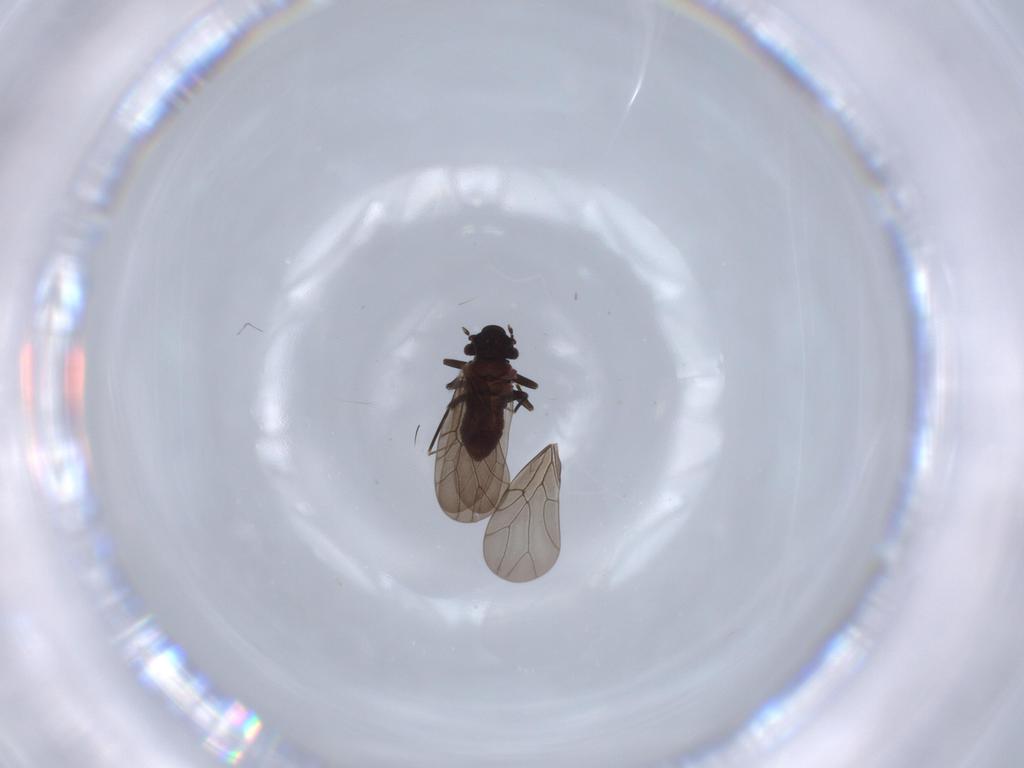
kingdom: Animalia
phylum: Arthropoda
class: Insecta
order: Psocodea
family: Lepidopsocidae
